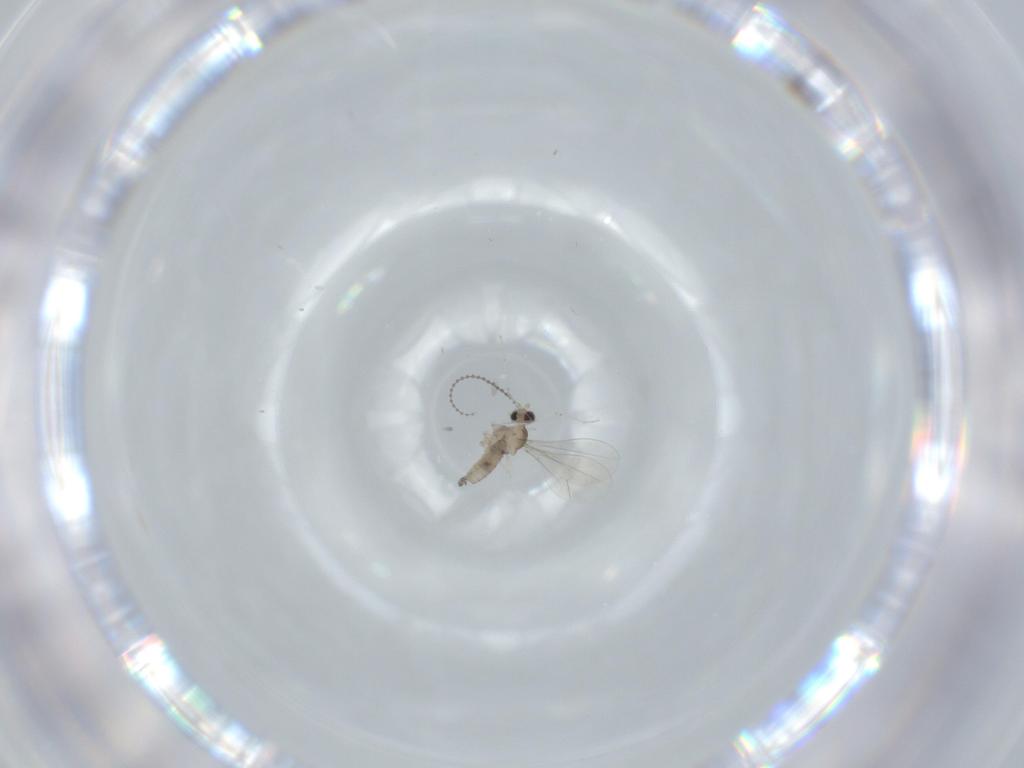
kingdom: Animalia
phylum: Arthropoda
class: Insecta
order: Diptera
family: Cecidomyiidae
